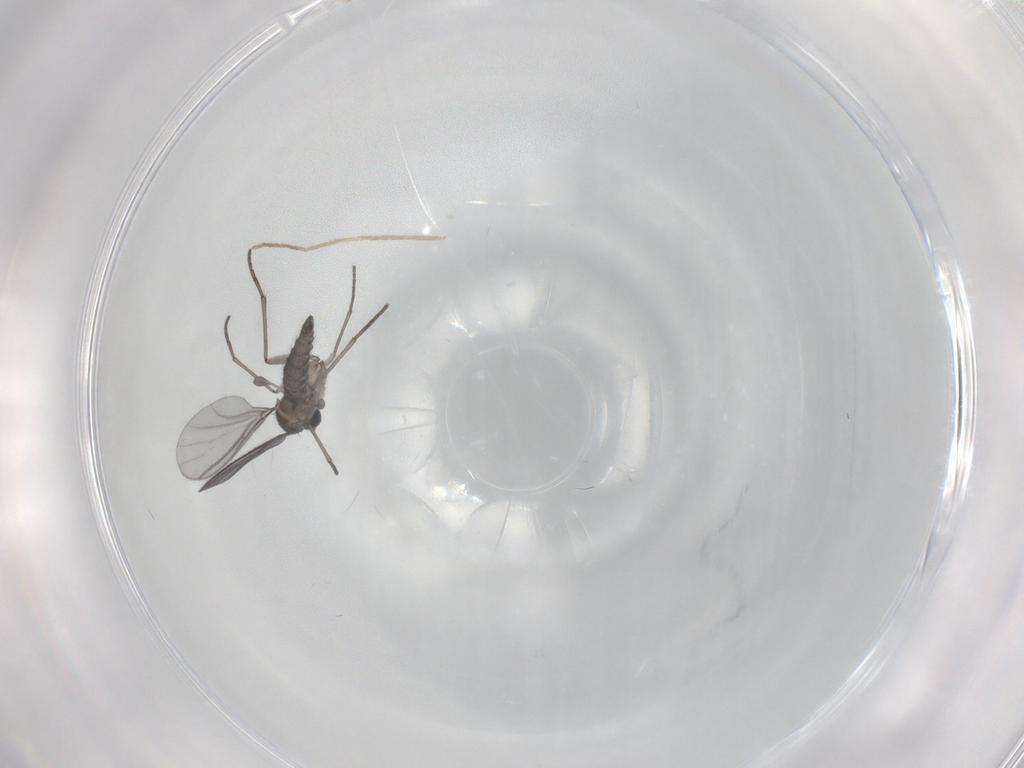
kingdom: Animalia
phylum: Arthropoda
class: Insecta
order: Diptera
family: Chironomidae
